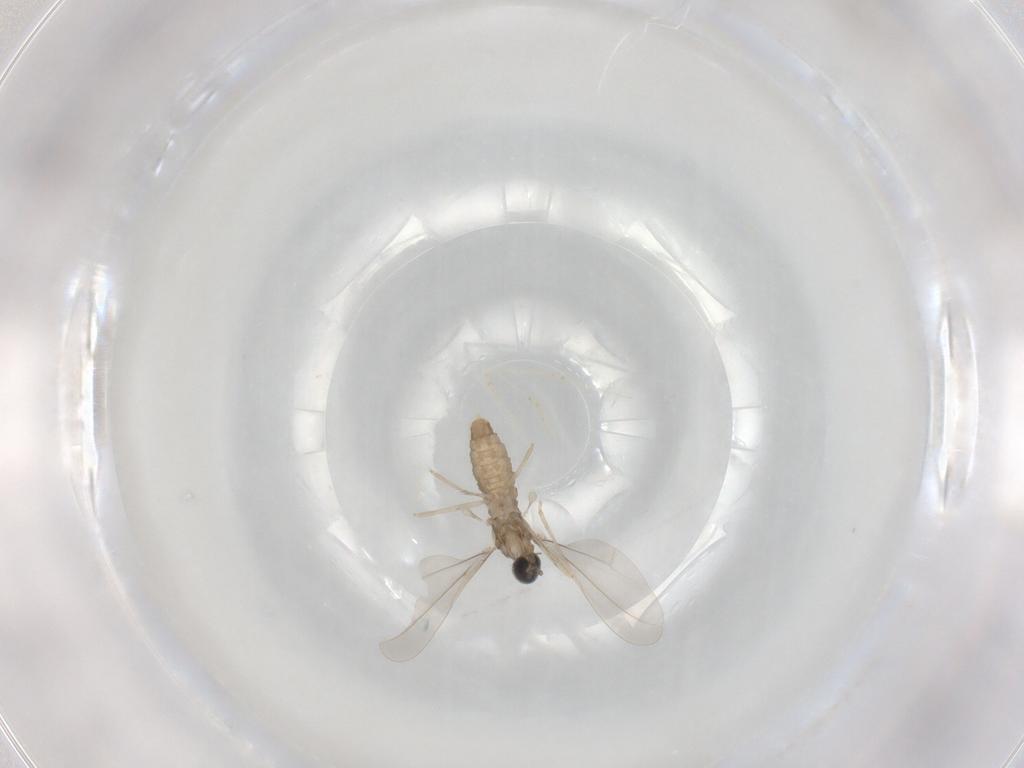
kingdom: Animalia
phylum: Arthropoda
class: Insecta
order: Diptera
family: Cecidomyiidae
